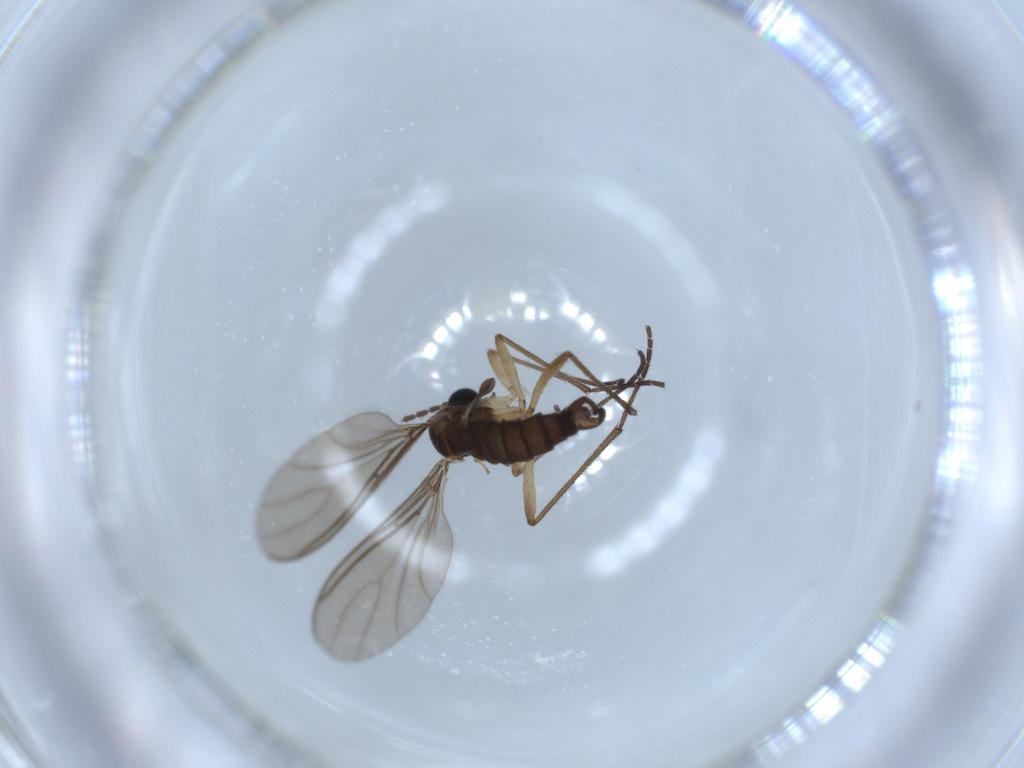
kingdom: Animalia
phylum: Arthropoda
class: Insecta
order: Diptera
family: Sciaridae
